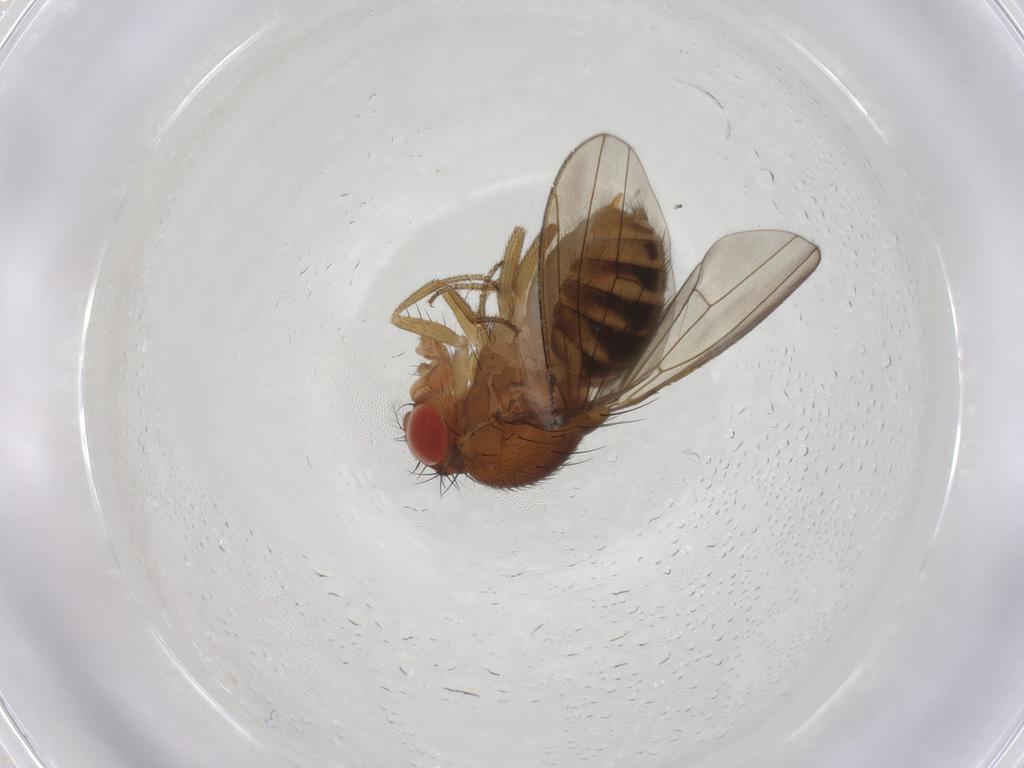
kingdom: Animalia
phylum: Arthropoda
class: Insecta
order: Diptera
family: Drosophilidae
